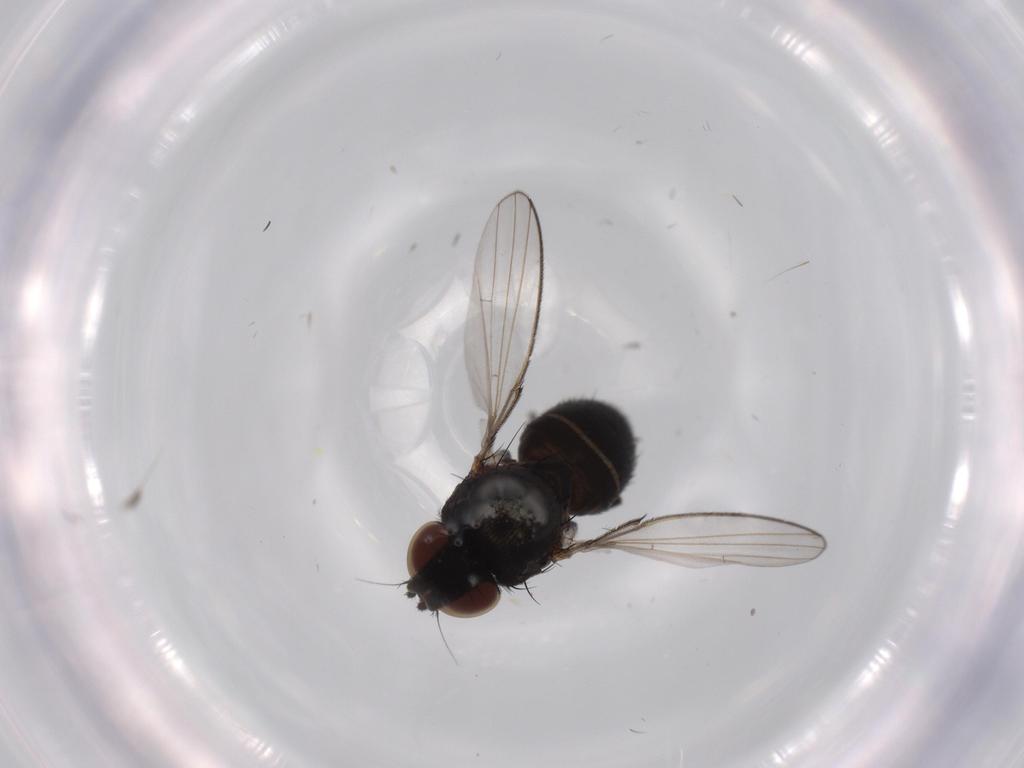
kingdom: Animalia
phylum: Arthropoda
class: Insecta
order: Diptera
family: Milichiidae
